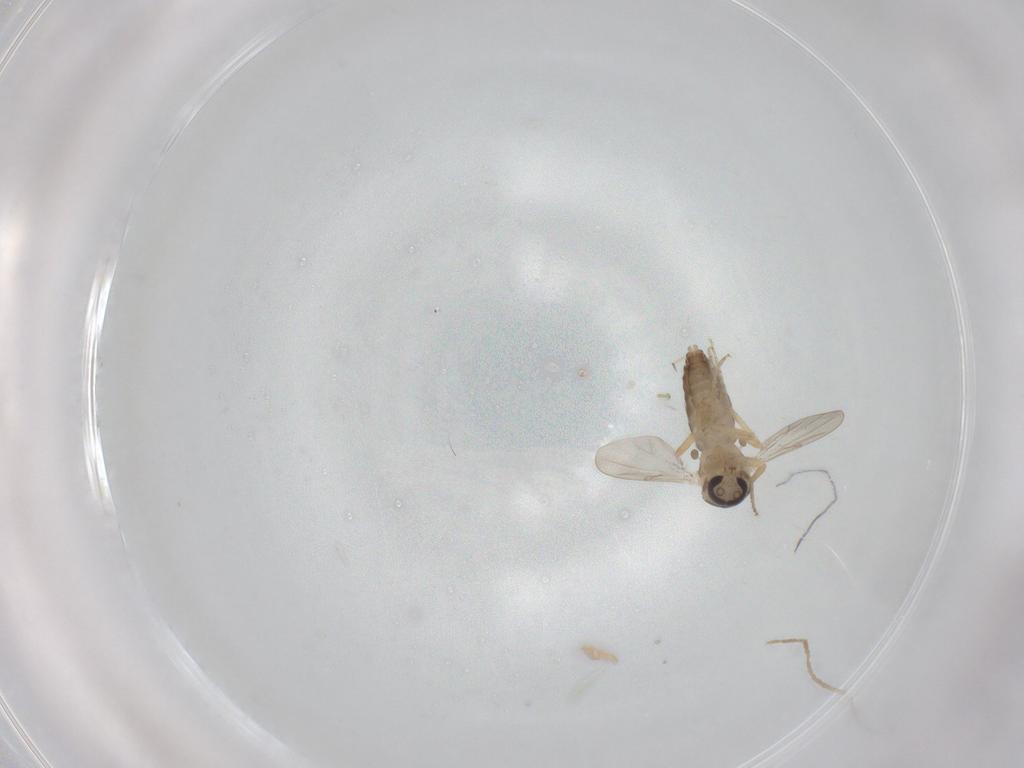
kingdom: Animalia
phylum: Arthropoda
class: Insecta
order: Diptera
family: Ceratopogonidae
